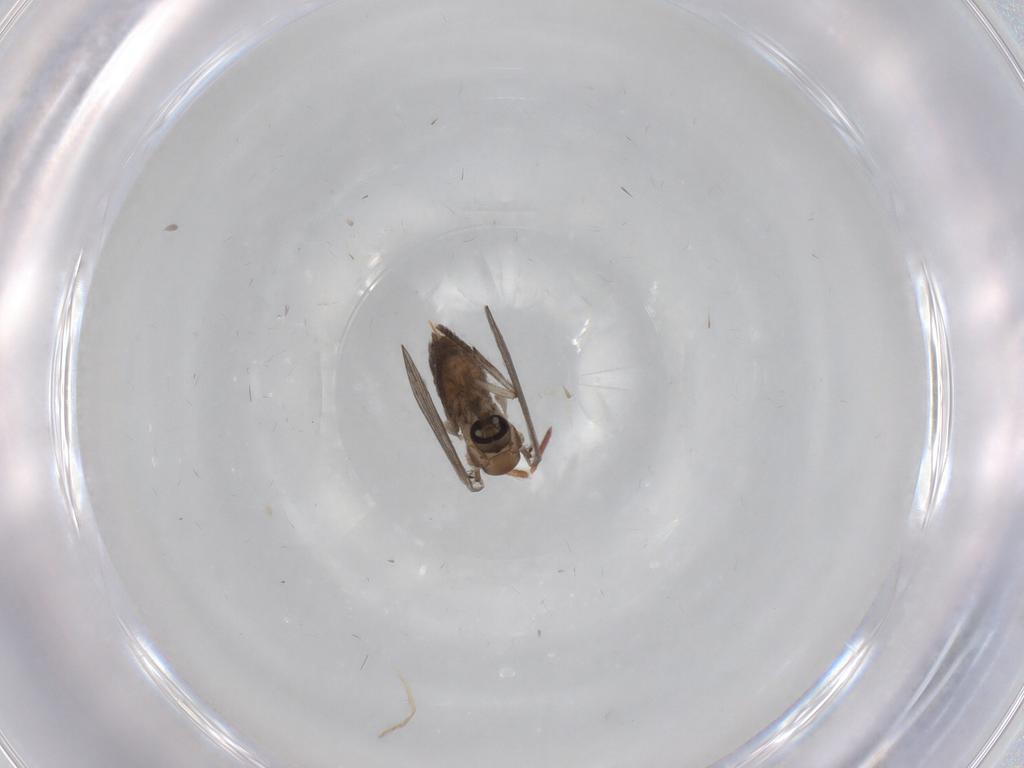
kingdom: Animalia
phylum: Arthropoda
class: Insecta
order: Diptera
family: Psychodidae
